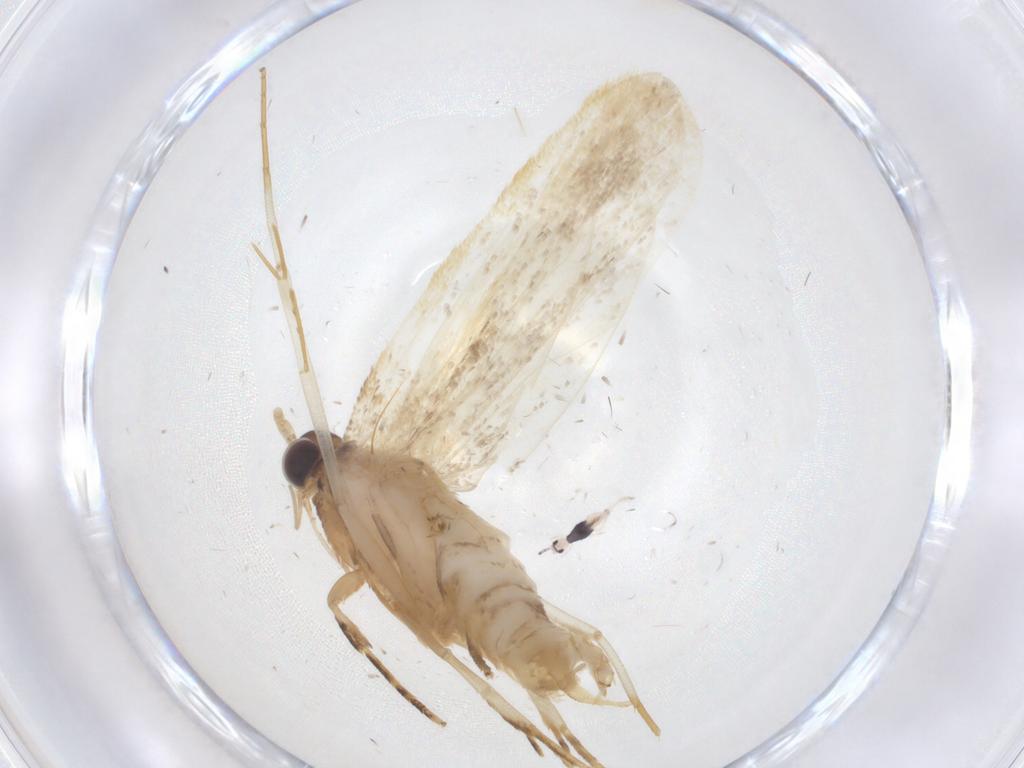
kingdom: Animalia
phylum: Arthropoda
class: Insecta
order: Lepidoptera
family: Lecithoceridae
